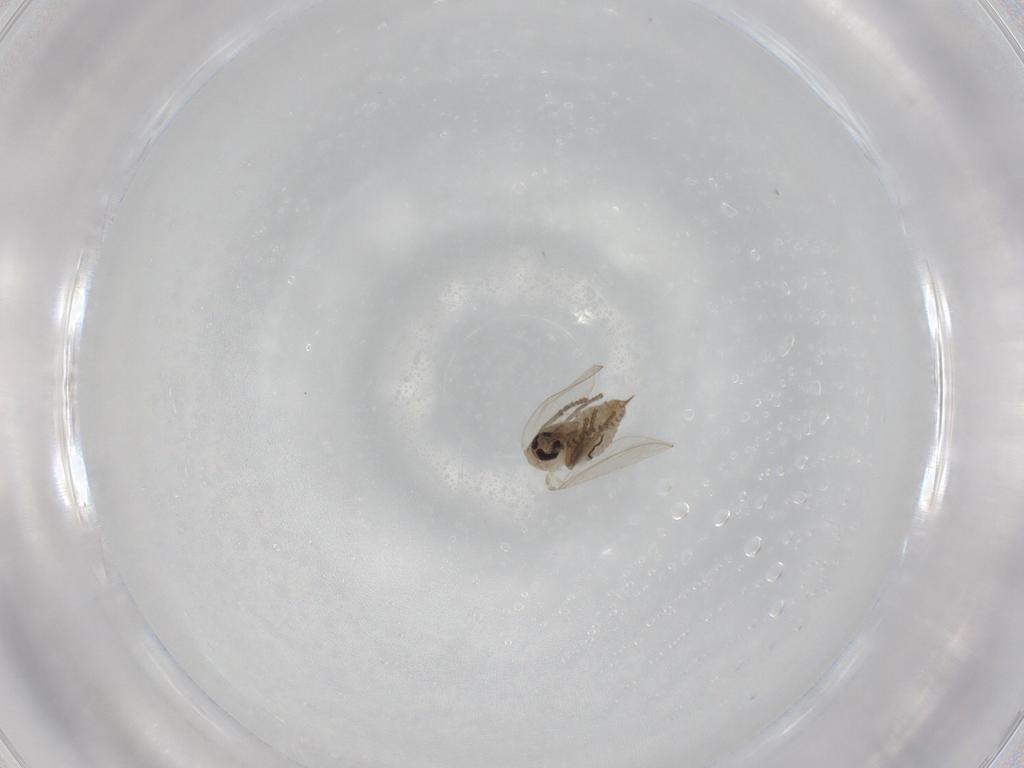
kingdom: Animalia
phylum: Arthropoda
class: Insecta
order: Diptera
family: Psychodidae
